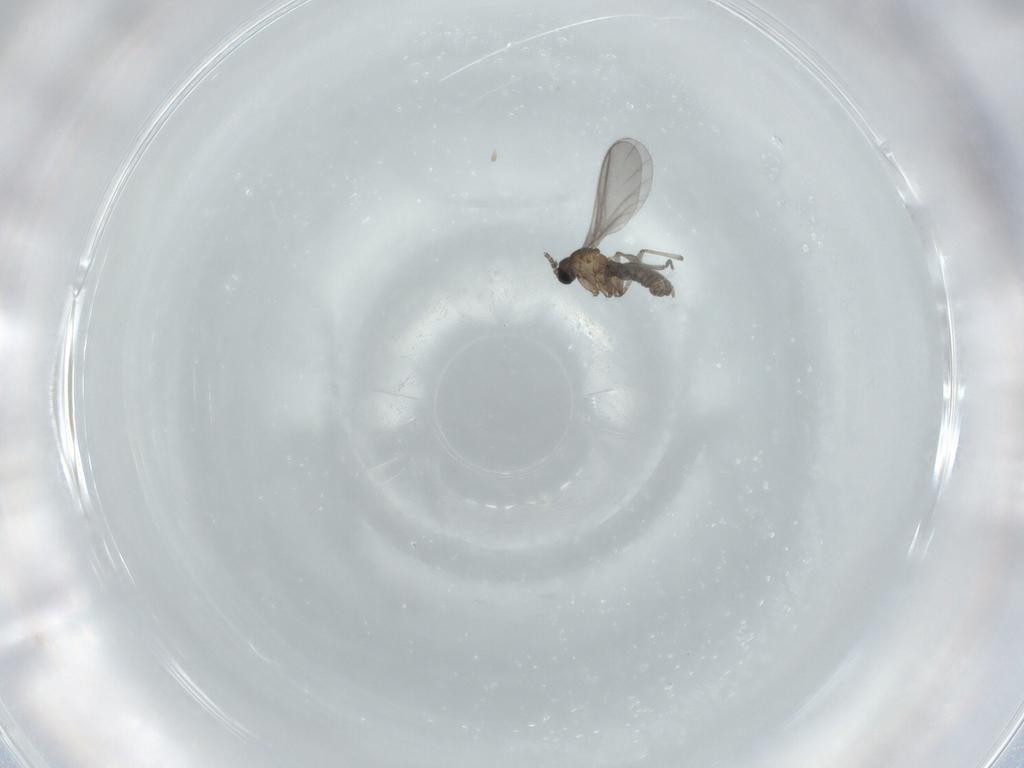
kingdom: Animalia
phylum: Arthropoda
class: Insecta
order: Diptera
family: Sciaridae
